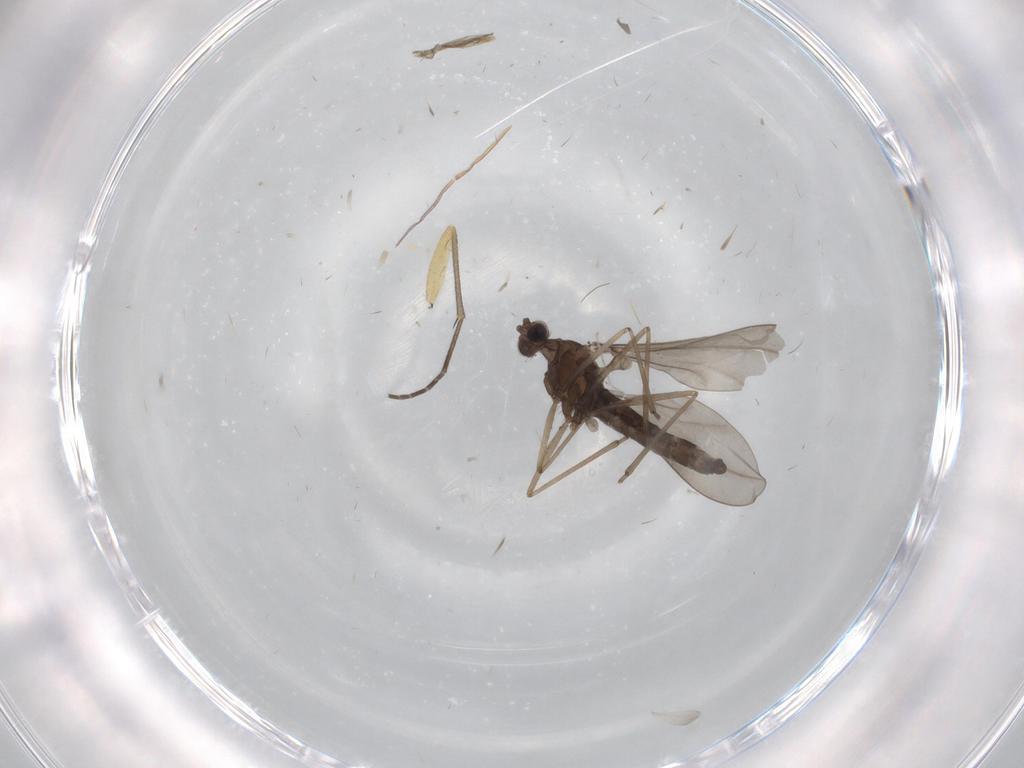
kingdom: Animalia
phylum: Arthropoda
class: Insecta
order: Diptera
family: Cecidomyiidae
